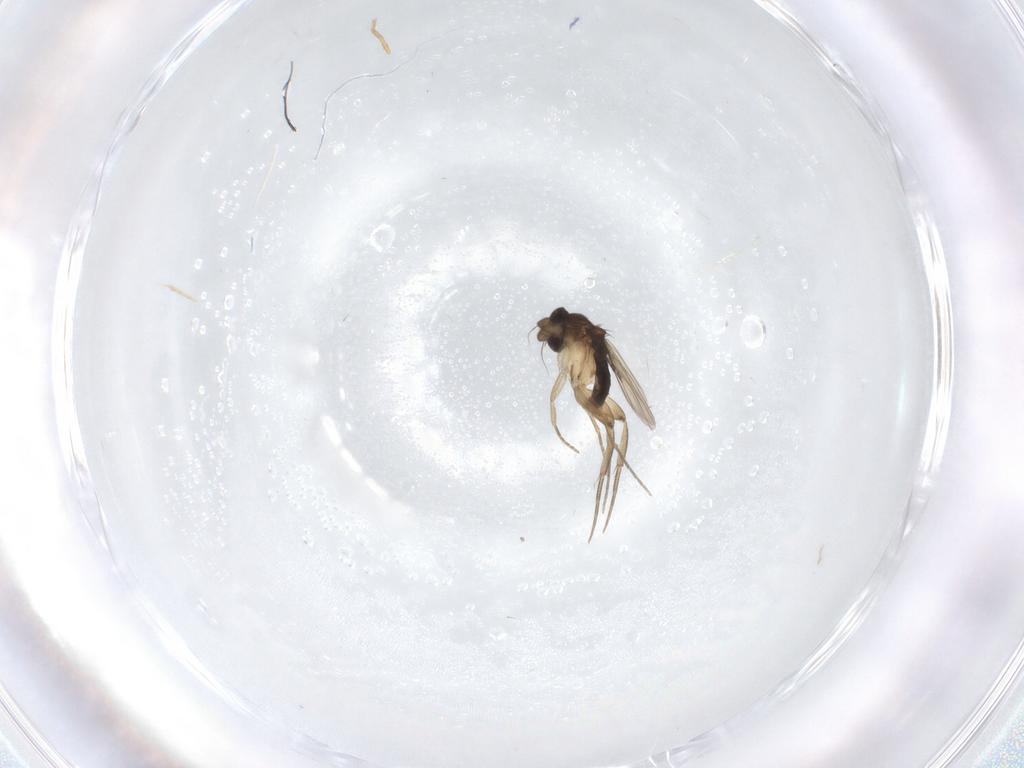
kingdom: Animalia
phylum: Arthropoda
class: Insecta
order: Diptera
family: Phoridae
